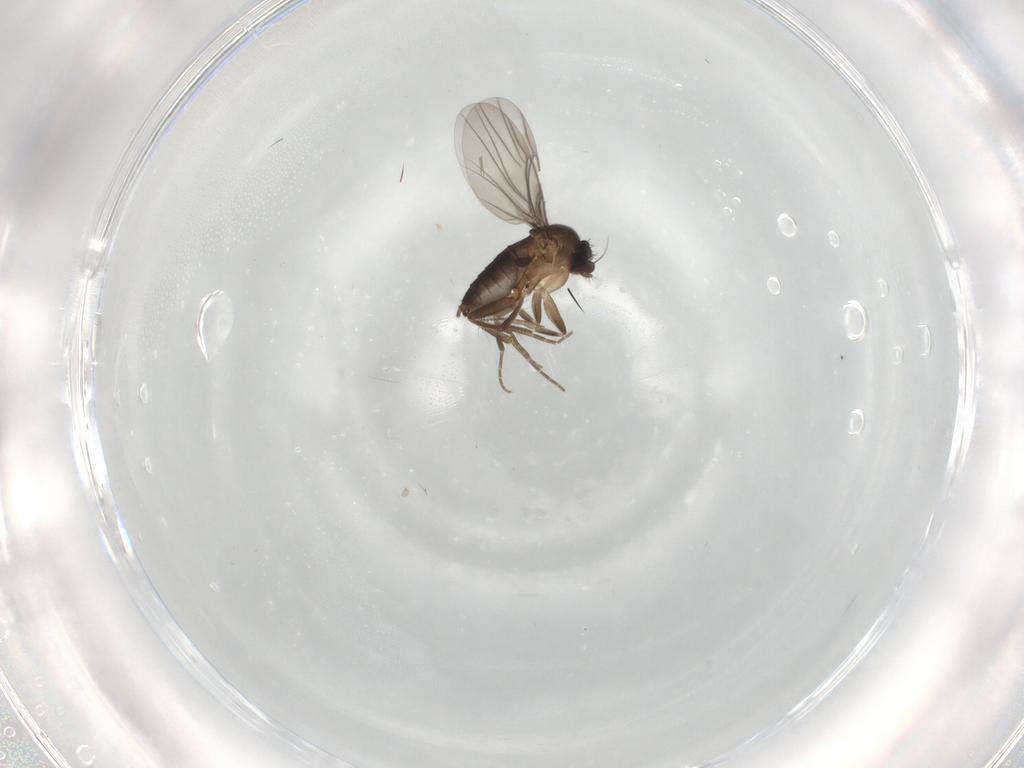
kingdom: Animalia
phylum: Arthropoda
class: Insecta
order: Diptera
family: Chironomidae
